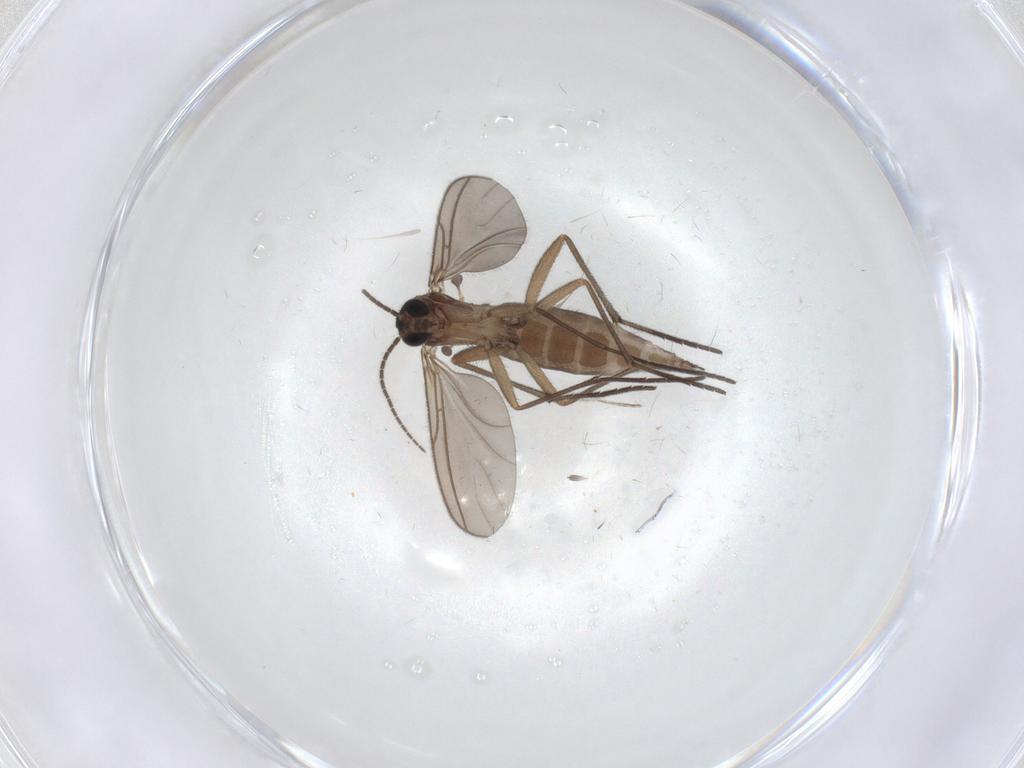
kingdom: Animalia
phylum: Arthropoda
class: Insecta
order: Diptera
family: Sciaridae
